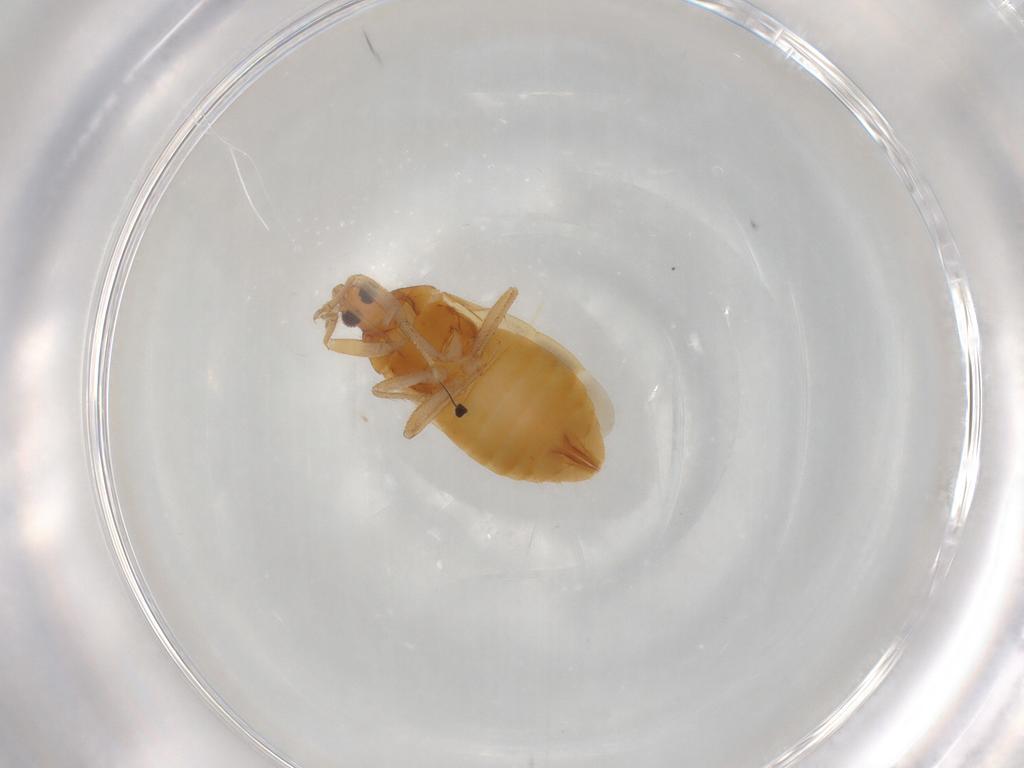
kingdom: Animalia
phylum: Arthropoda
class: Insecta
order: Hemiptera
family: Lasiochilidae
